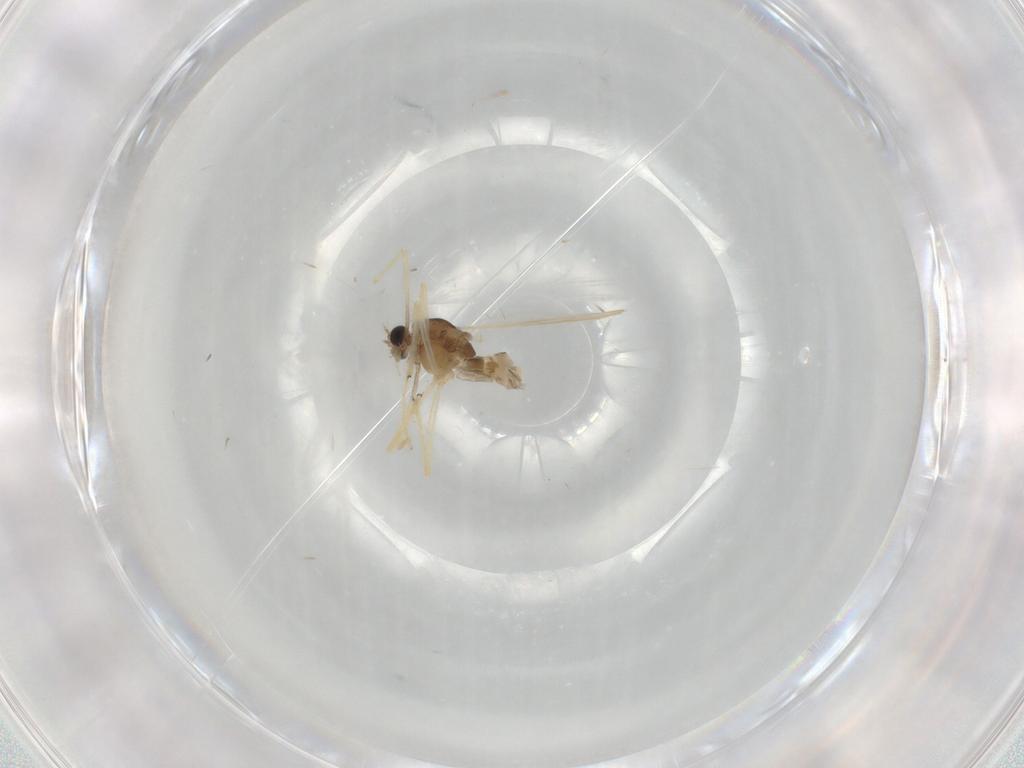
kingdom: Animalia
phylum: Arthropoda
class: Insecta
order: Diptera
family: Chironomidae
